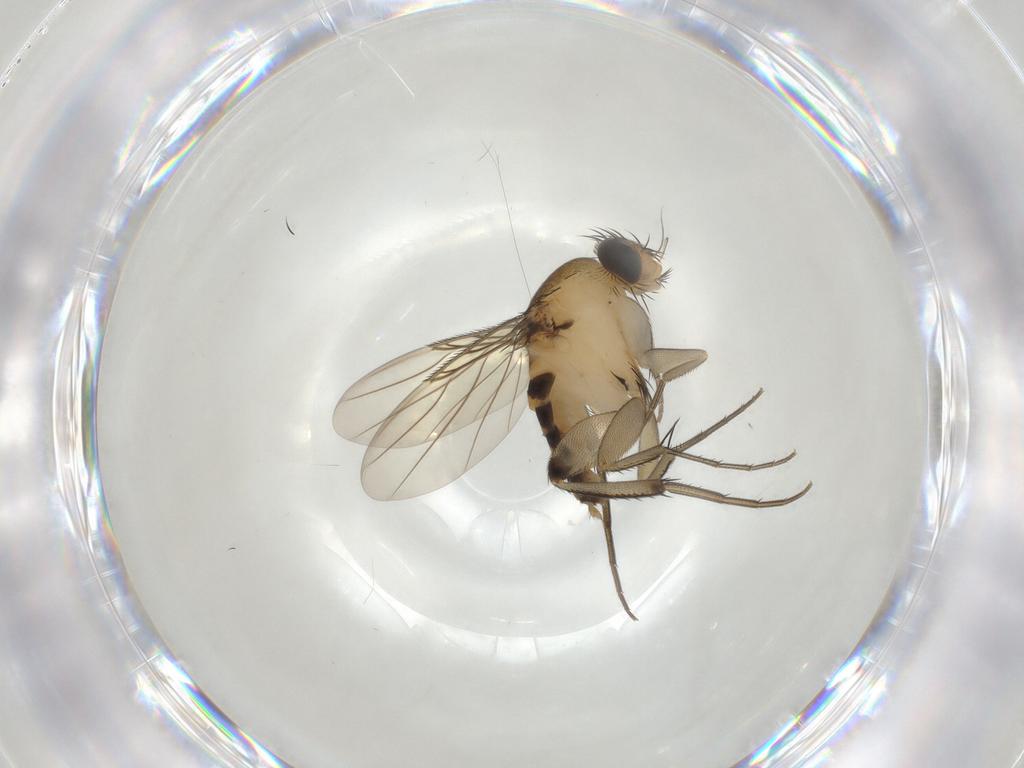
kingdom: Animalia
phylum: Arthropoda
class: Insecta
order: Diptera
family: Phoridae
